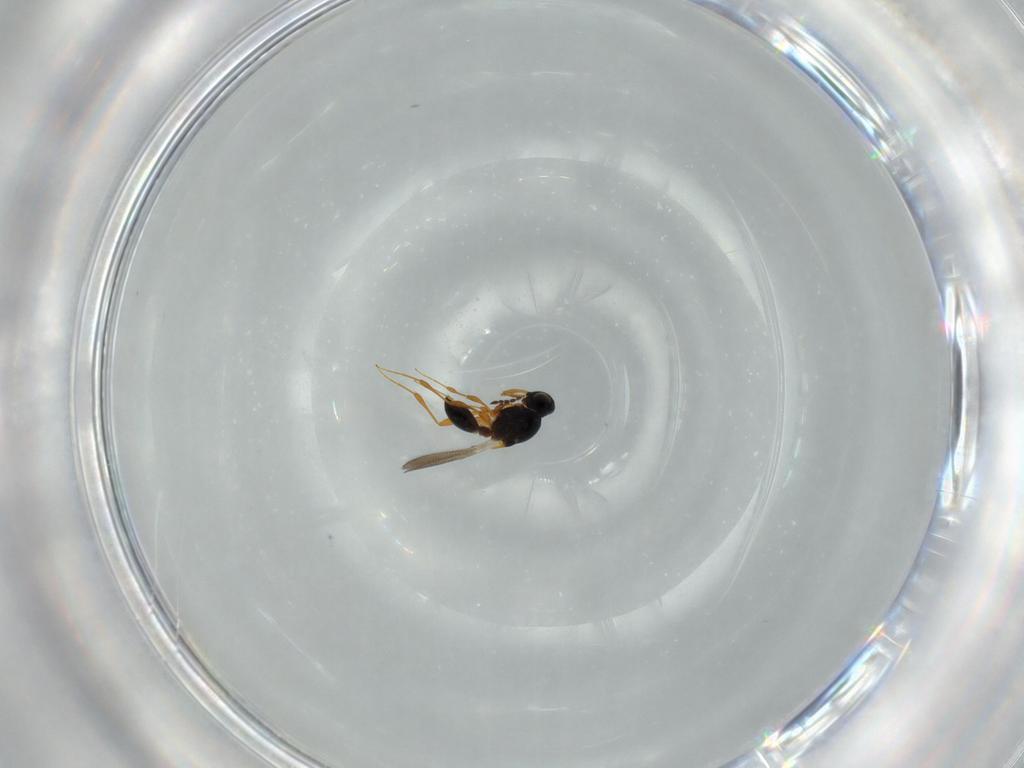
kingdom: Animalia
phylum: Arthropoda
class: Insecta
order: Hymenoptera
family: Platygastridae
